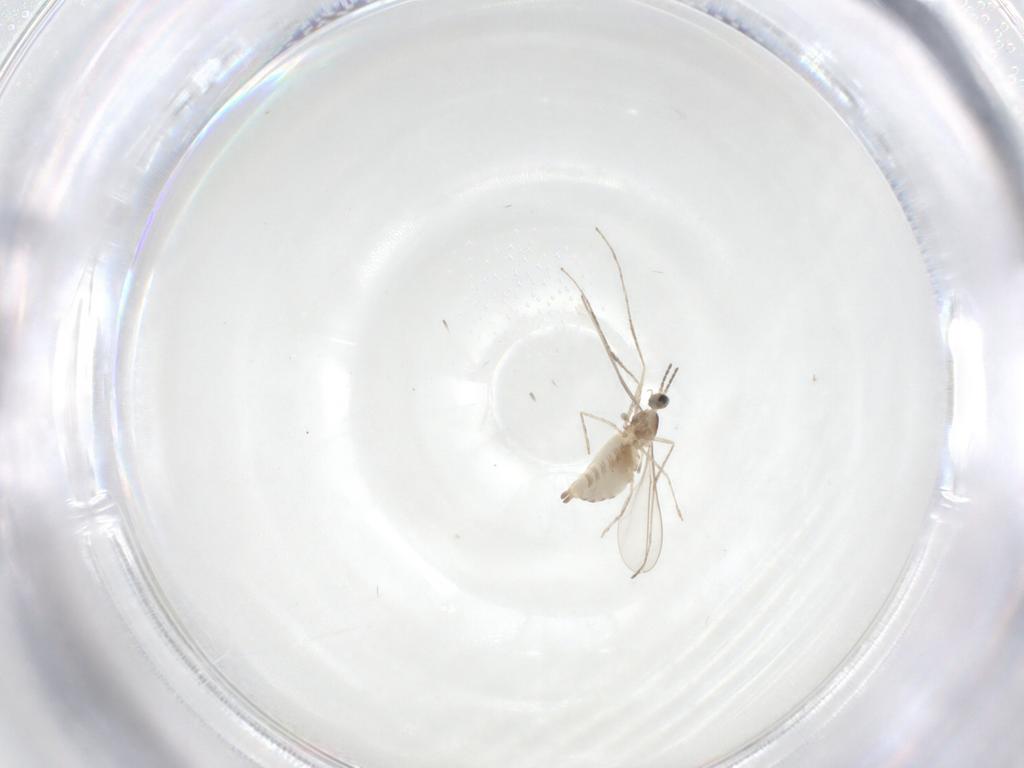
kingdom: Animalia
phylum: Arthropoda
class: Insecta
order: Diptera
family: Cecidomyiidae
